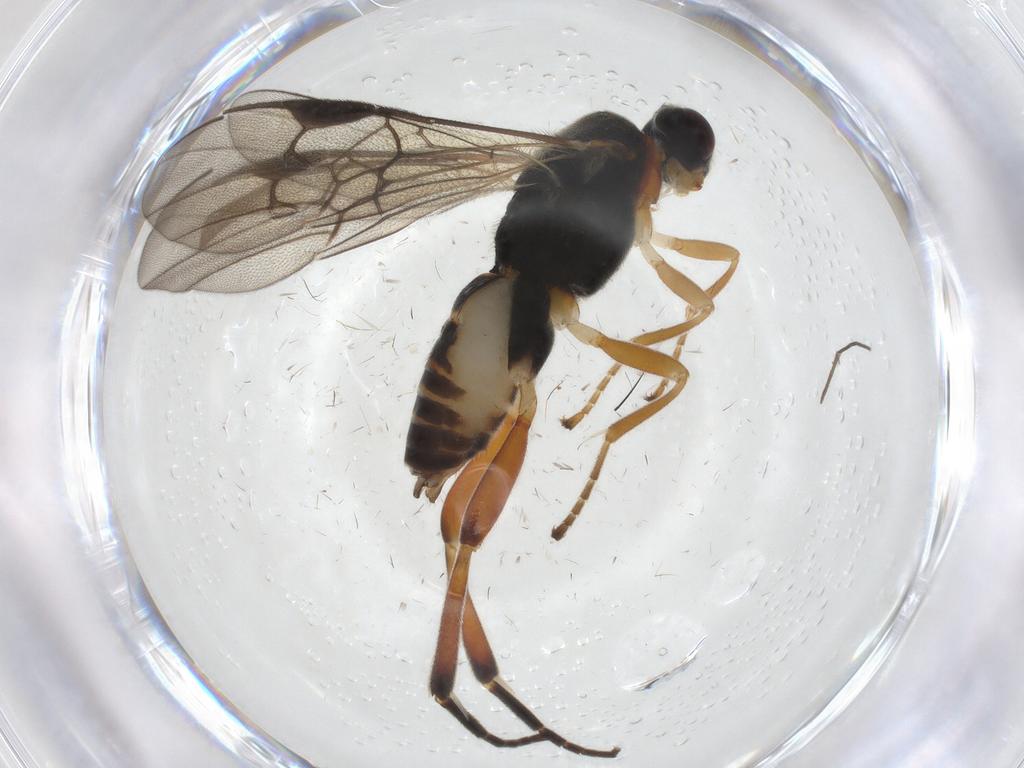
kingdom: Animalia
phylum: Arthropoda
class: Insecta
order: Lepidoptera
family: Tortricidae
